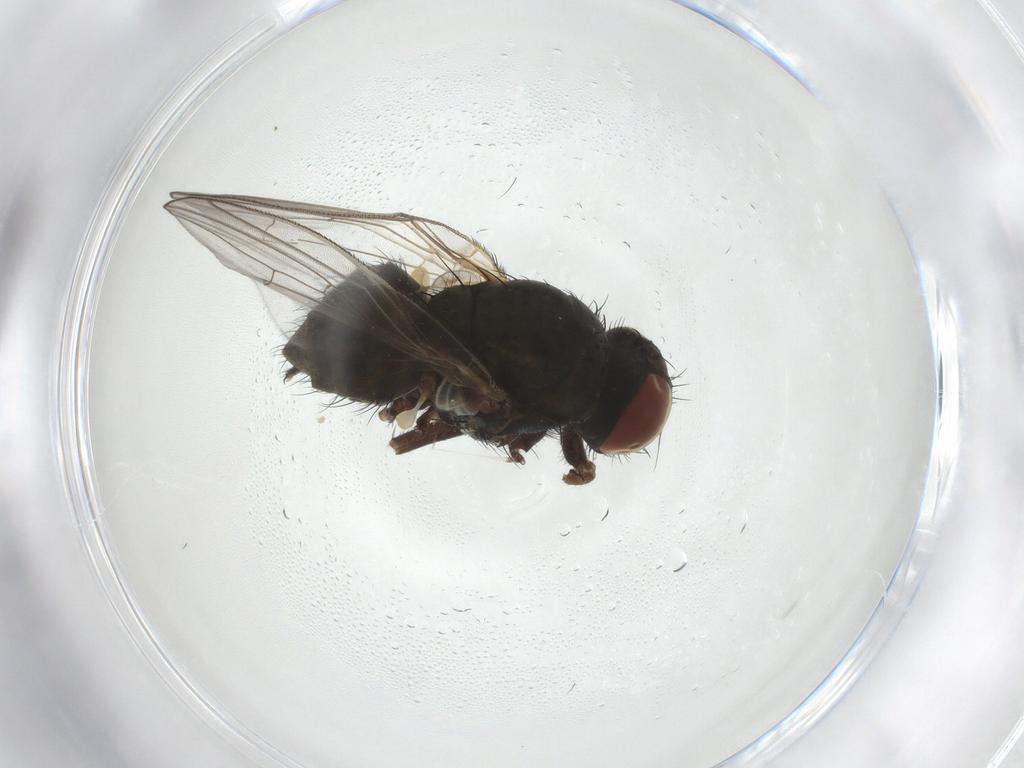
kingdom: Animalia
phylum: Arthropoda
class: Insecta
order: Diptera
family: Anthomyiidae
